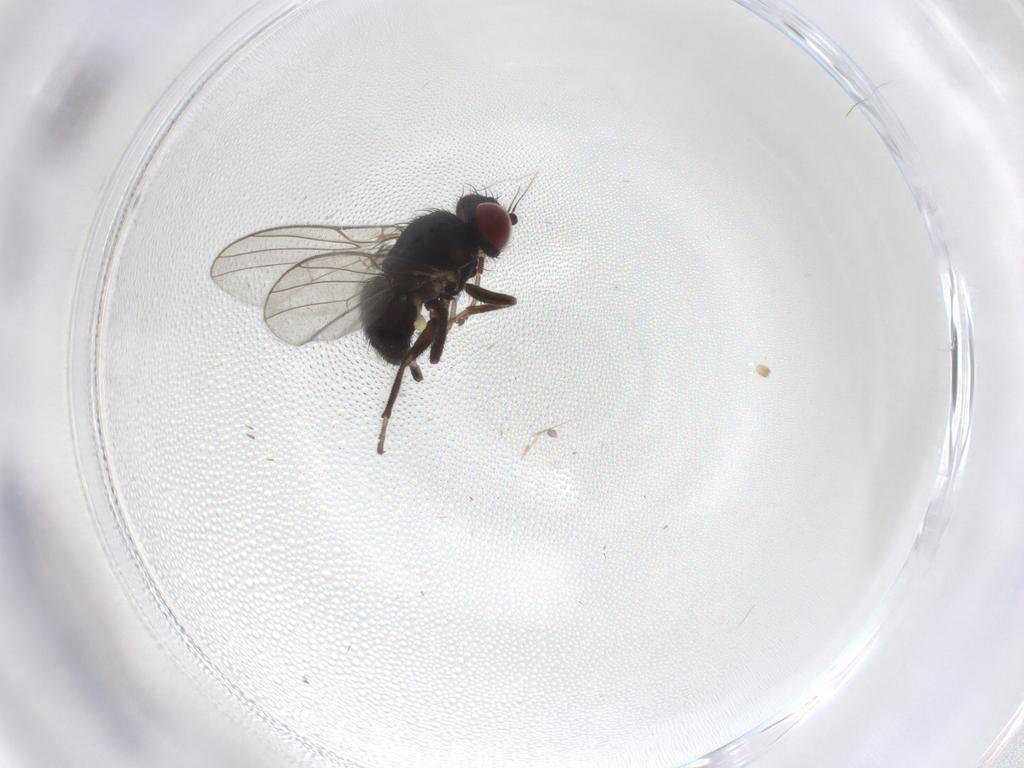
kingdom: Animalia
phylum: Arthropoda
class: Insecta
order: Diptera
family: Agromyzidae
